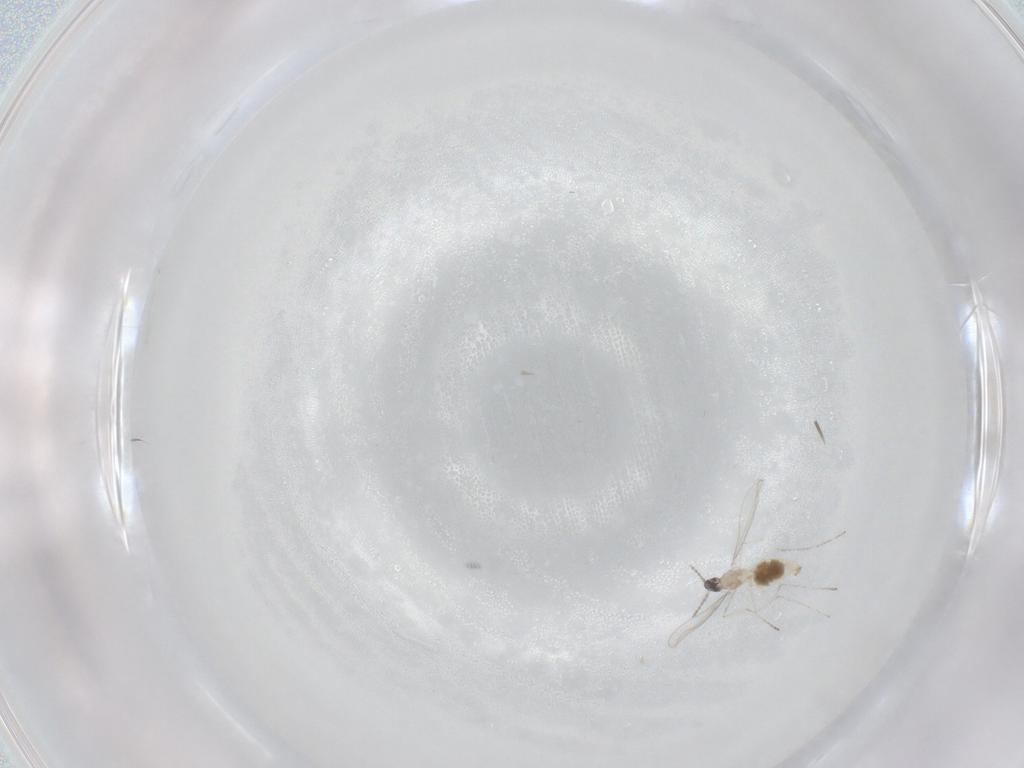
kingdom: Animalia
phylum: Arthropoda
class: Insecta
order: Diptera
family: Cecidomyiidae
